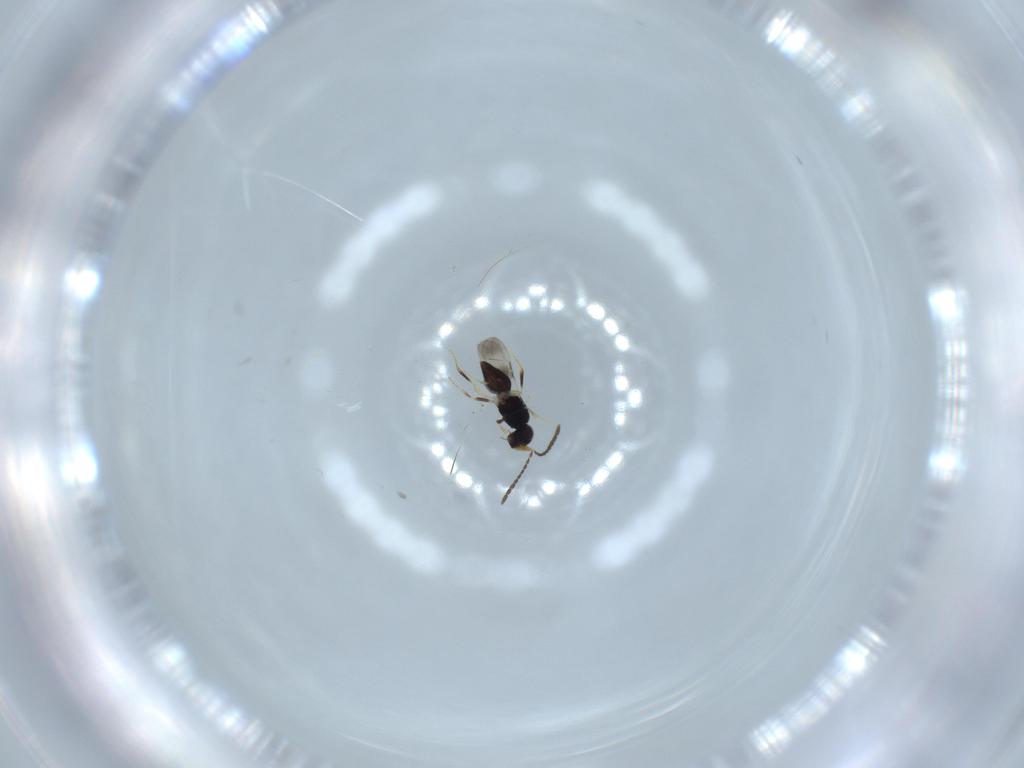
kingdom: Animalia
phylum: Arthropoda
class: Insecta
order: Hymenoptera
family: Ceraphronidae
